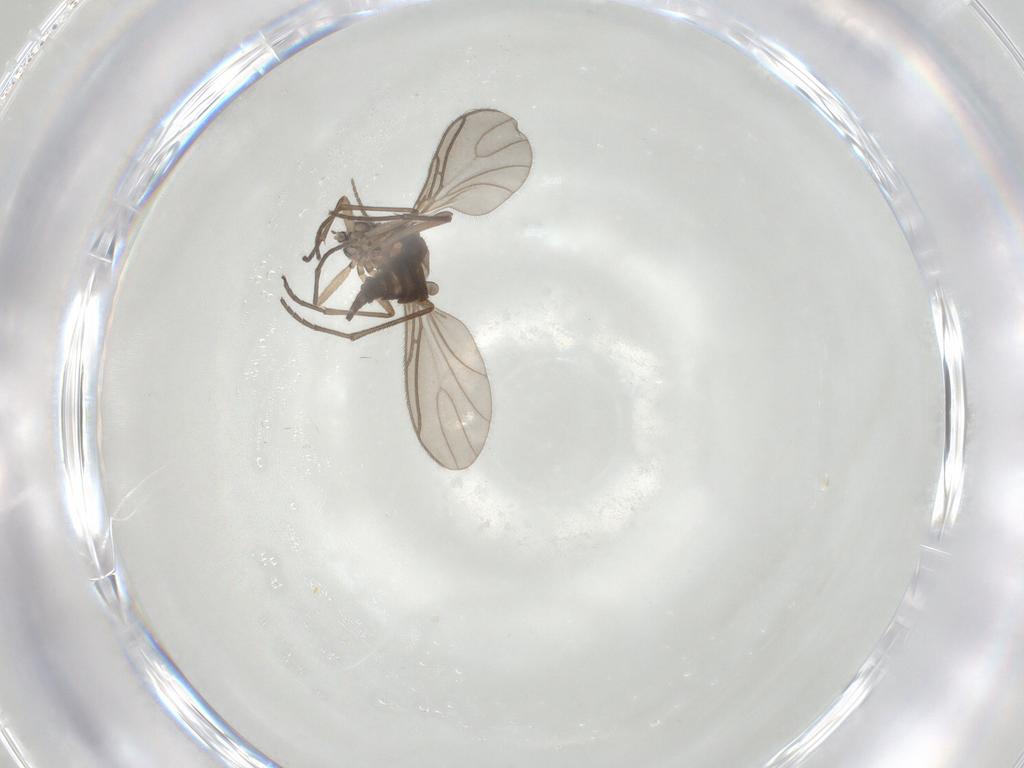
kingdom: Animalia
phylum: Arthropoda
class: Insecta
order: Diptera
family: Sciaridae
